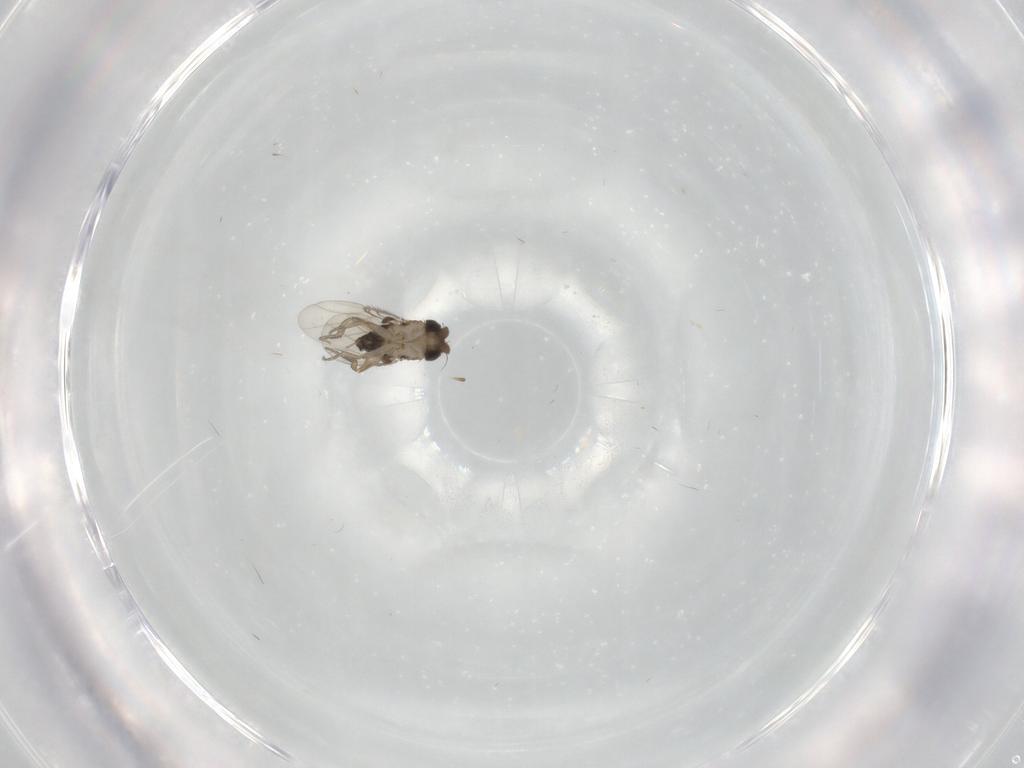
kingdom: Animalia
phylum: Arthropoda
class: Insecta
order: Diptera
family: Phoridae
